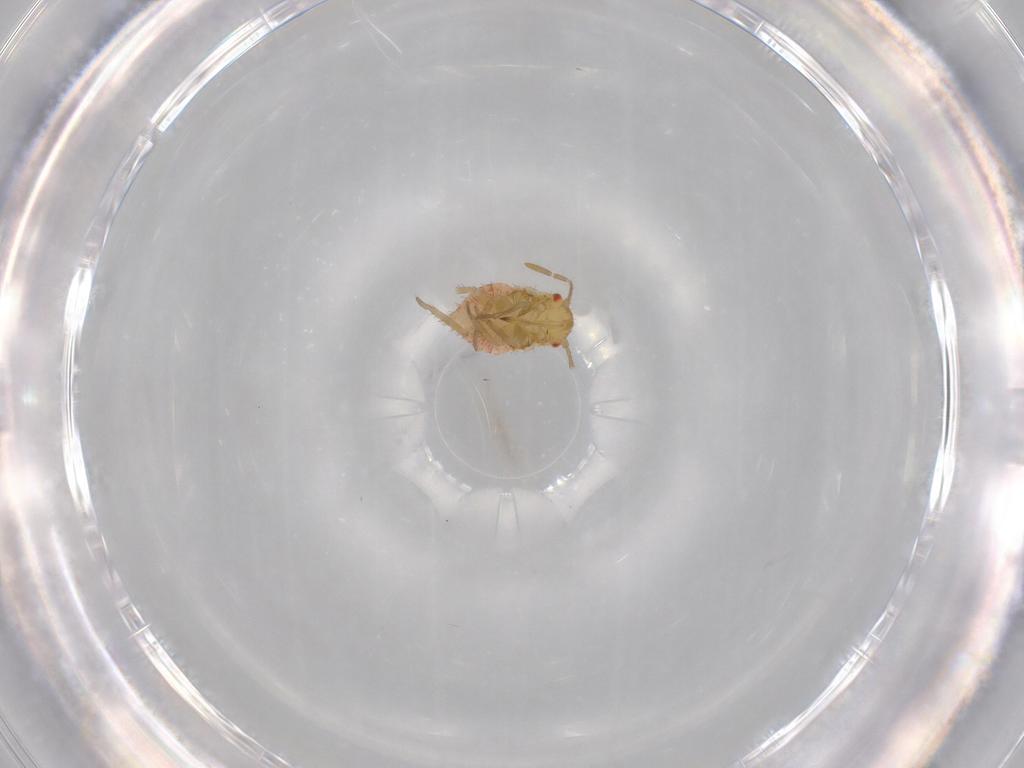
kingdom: Animalia
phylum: Arthropoda
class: Insecta
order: Hemiptera
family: Miridae
